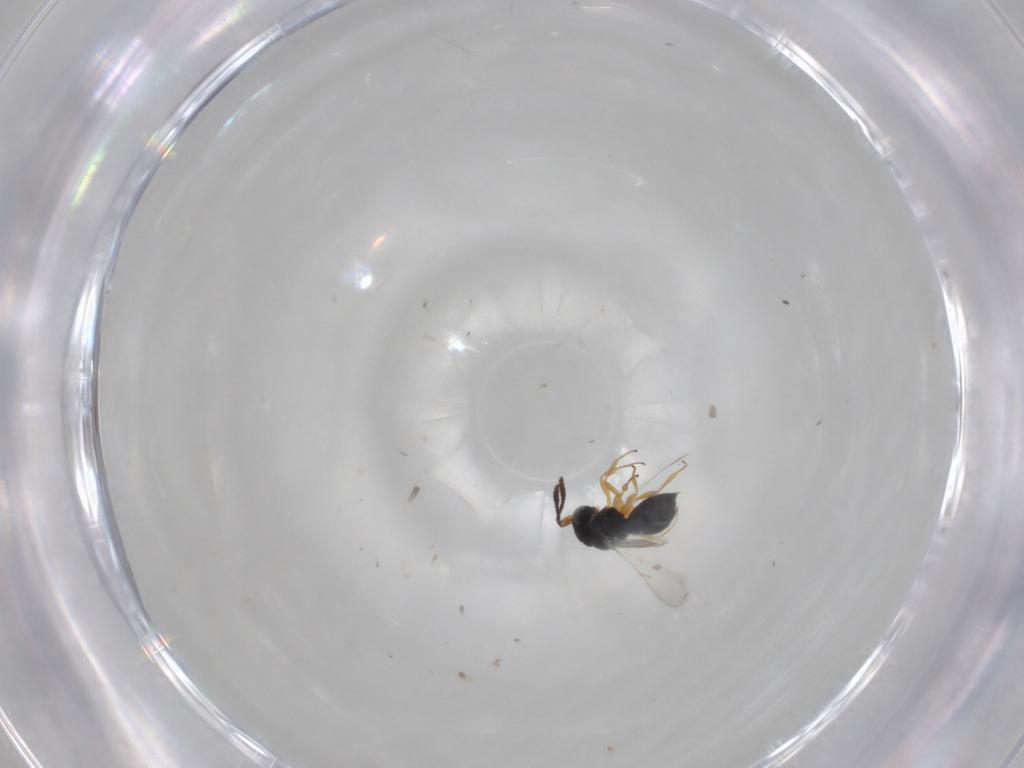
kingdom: Animalia
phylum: Arthropoda
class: Insecta
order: Hymenoptera
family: Scelionidae
